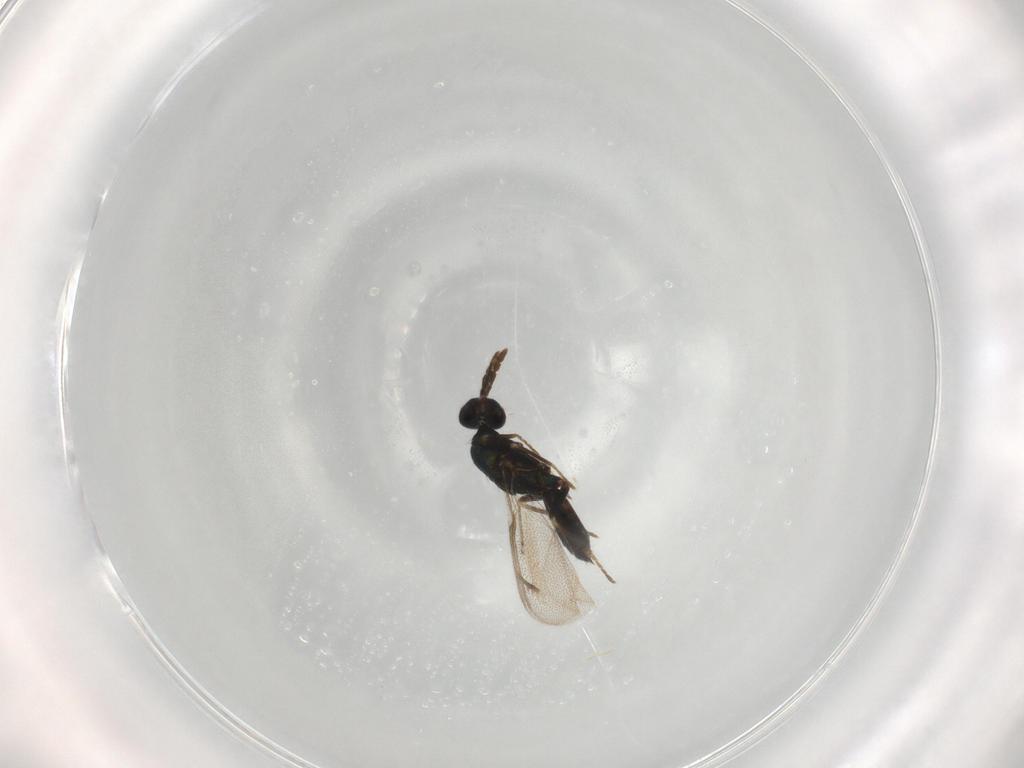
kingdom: Animalia
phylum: Arthropoda
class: Insecta
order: Hymenoptera
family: Eulophidae
